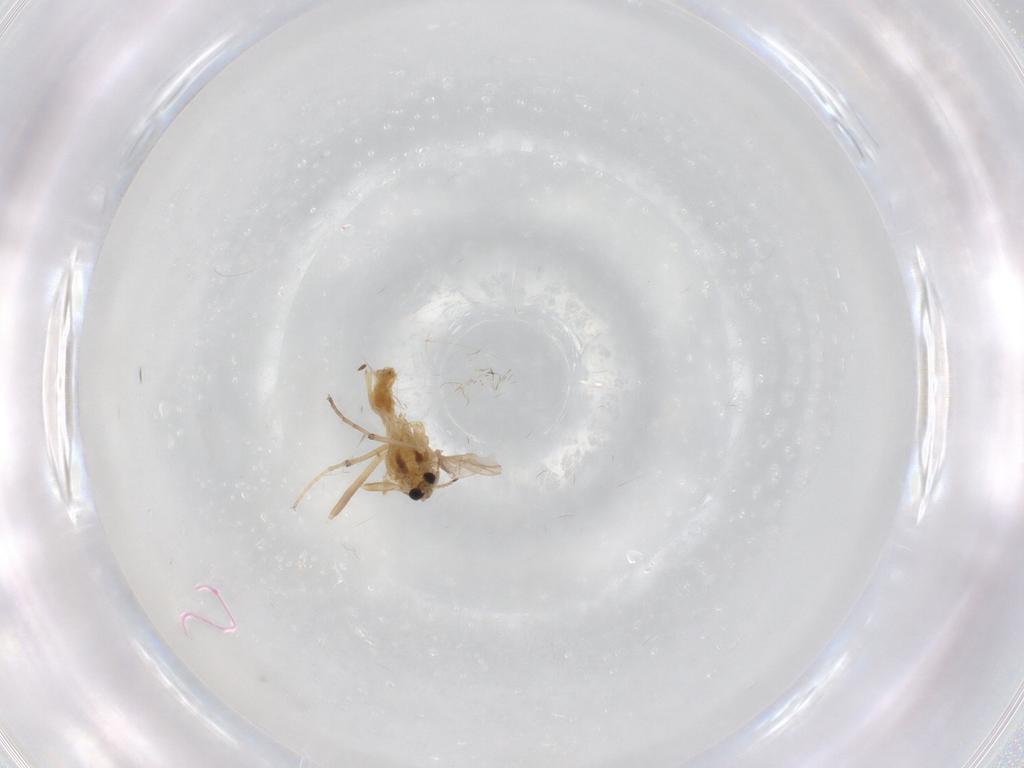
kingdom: Animalia
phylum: Arthropoda
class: Insecta
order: Diptera
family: Chironomidae
